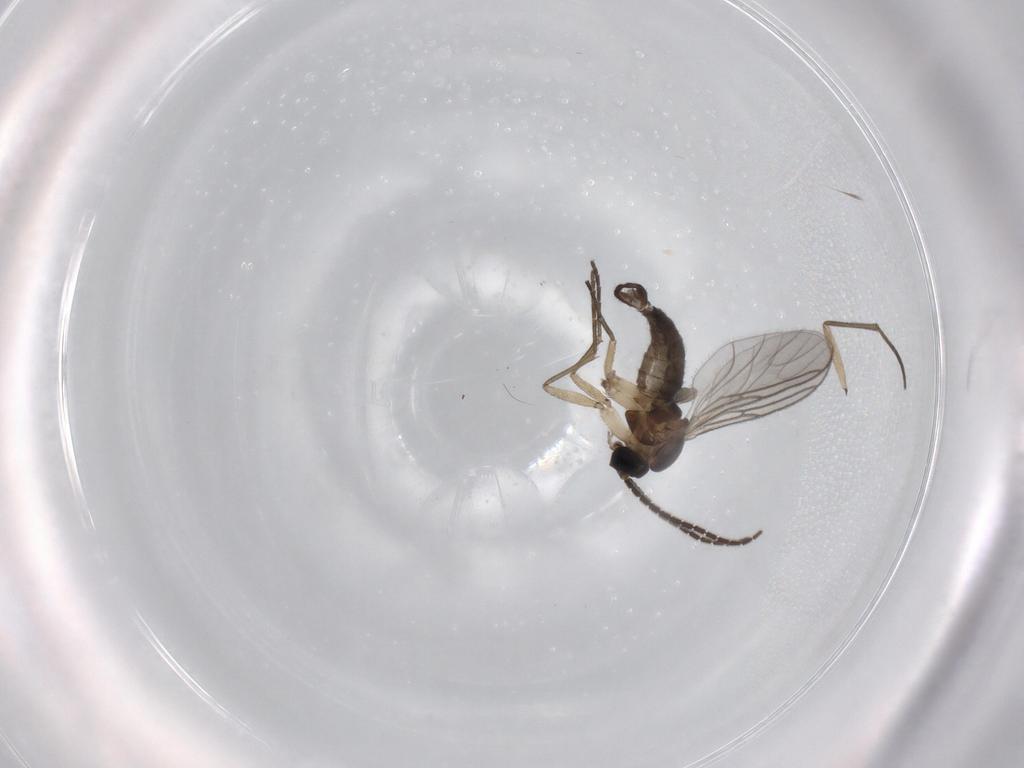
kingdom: Animalia
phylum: Arthropoda
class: Insecta
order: Diptera
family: Sciaridae
